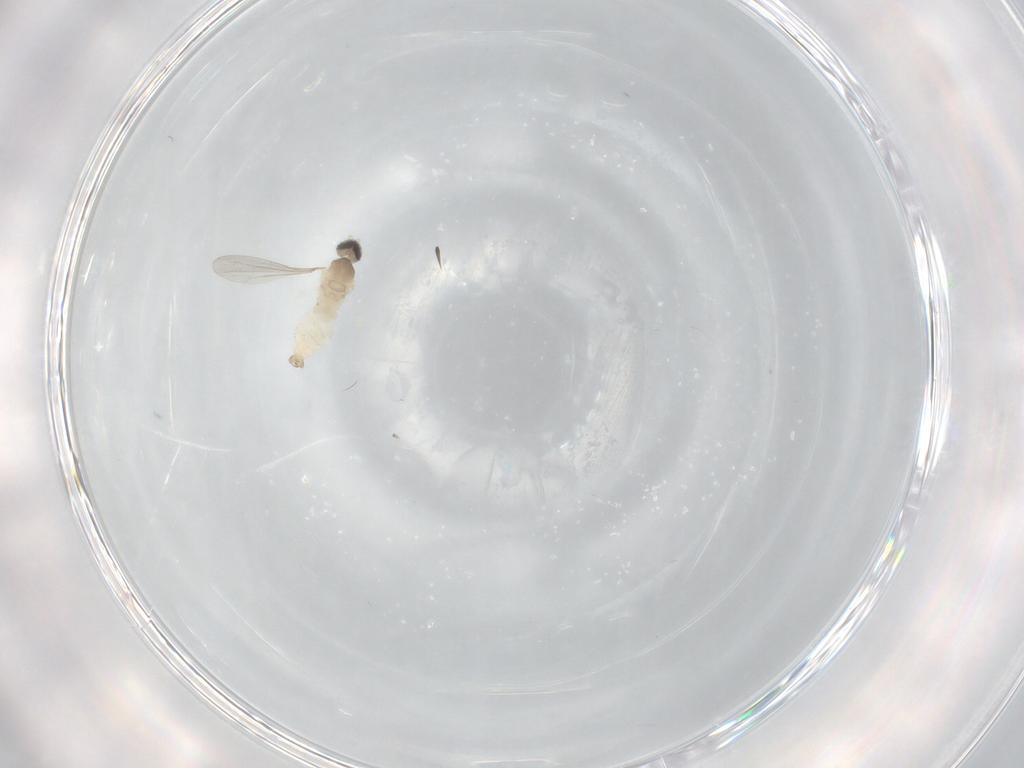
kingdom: Animalia
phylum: Arthropoda
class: Insecta
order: Diptera
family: Cecidomyiidae
